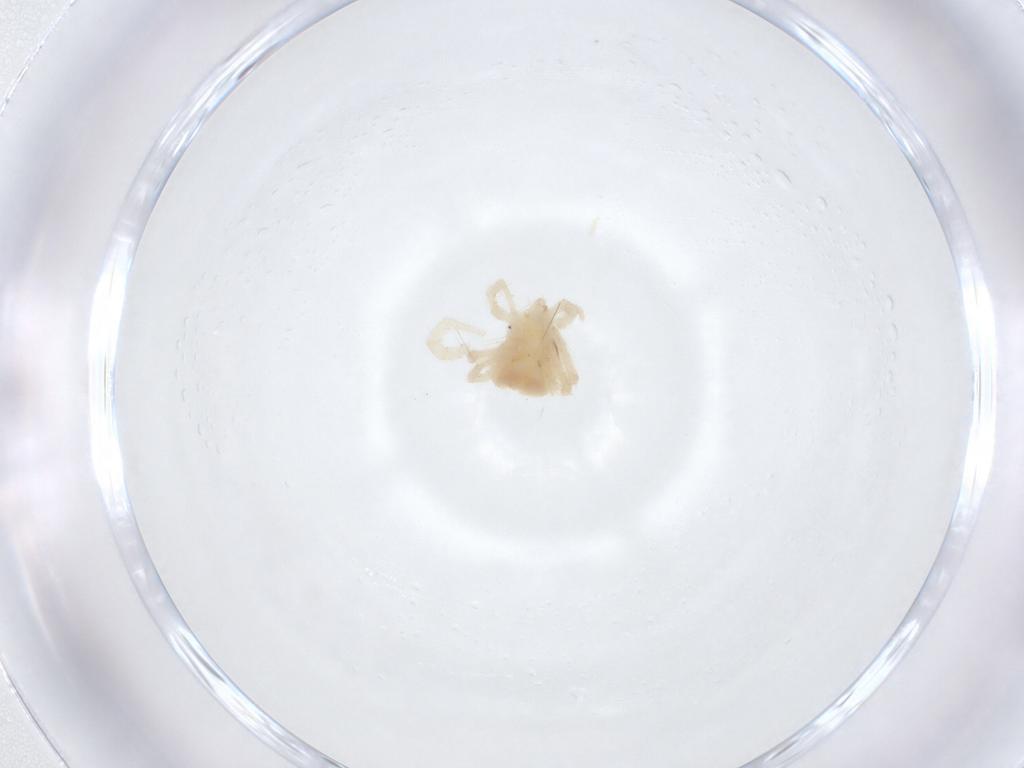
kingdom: Animalia
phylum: Arthropoda
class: Arachnida
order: Trombidiformes
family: Anystidae
